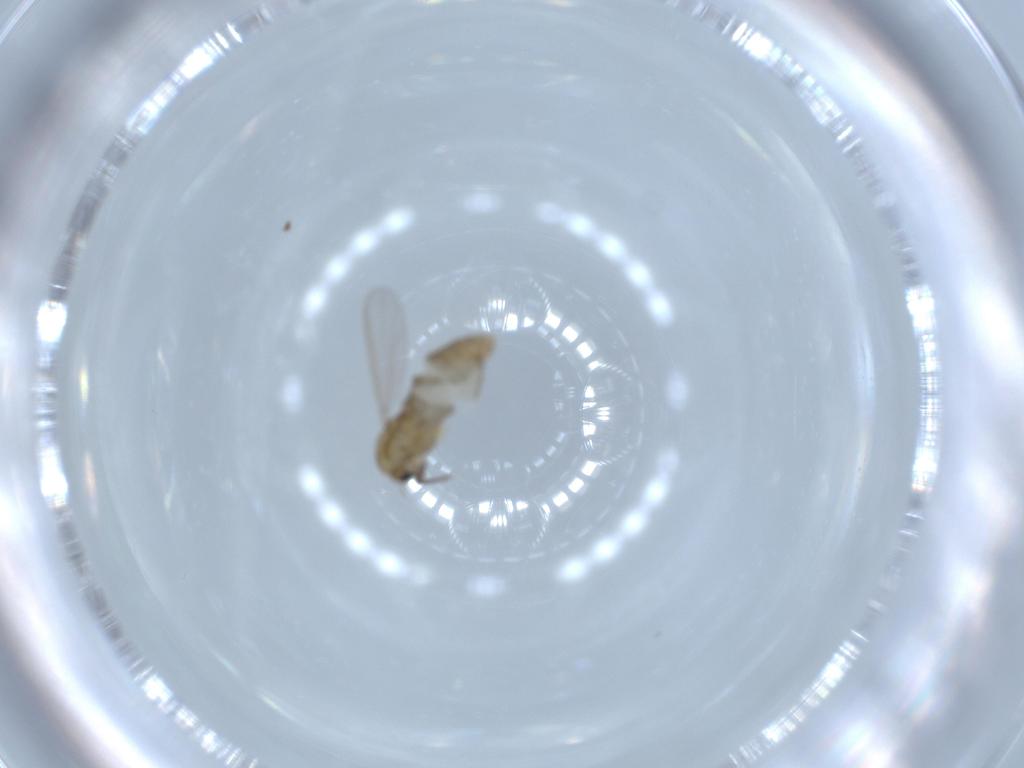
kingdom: Animalia
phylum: Arthropoda
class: Insecta
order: Diptera
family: Chironomidae
